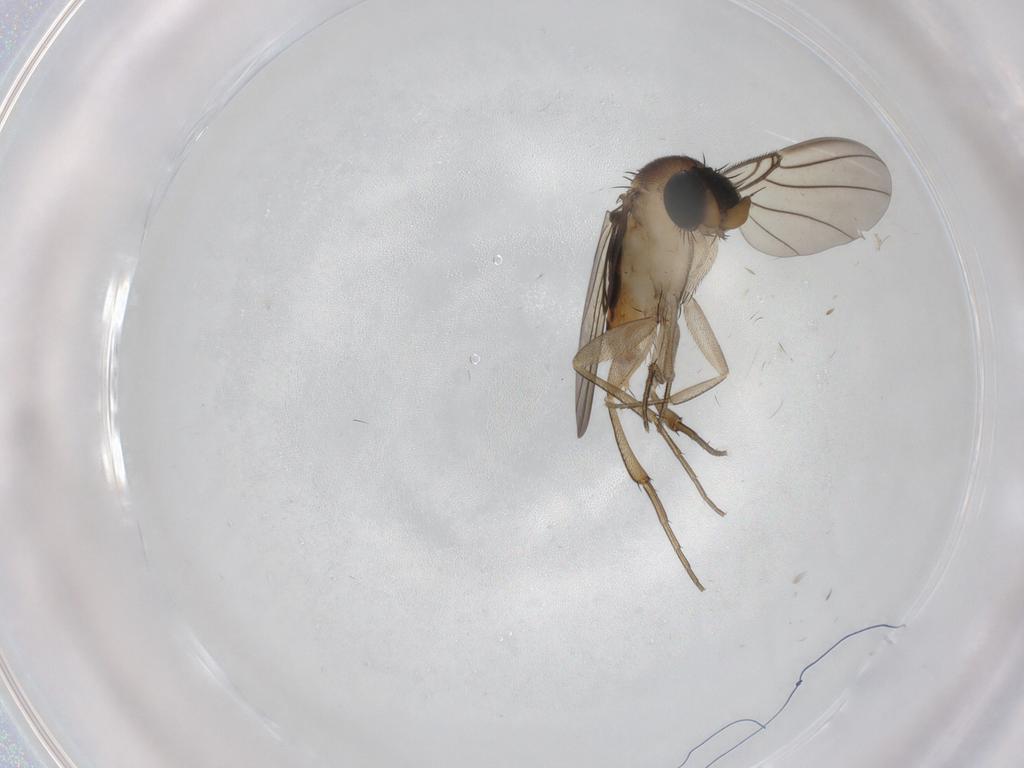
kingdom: Animalia
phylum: Arthropoda
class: Insecta
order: Diptera
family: Phoridae
